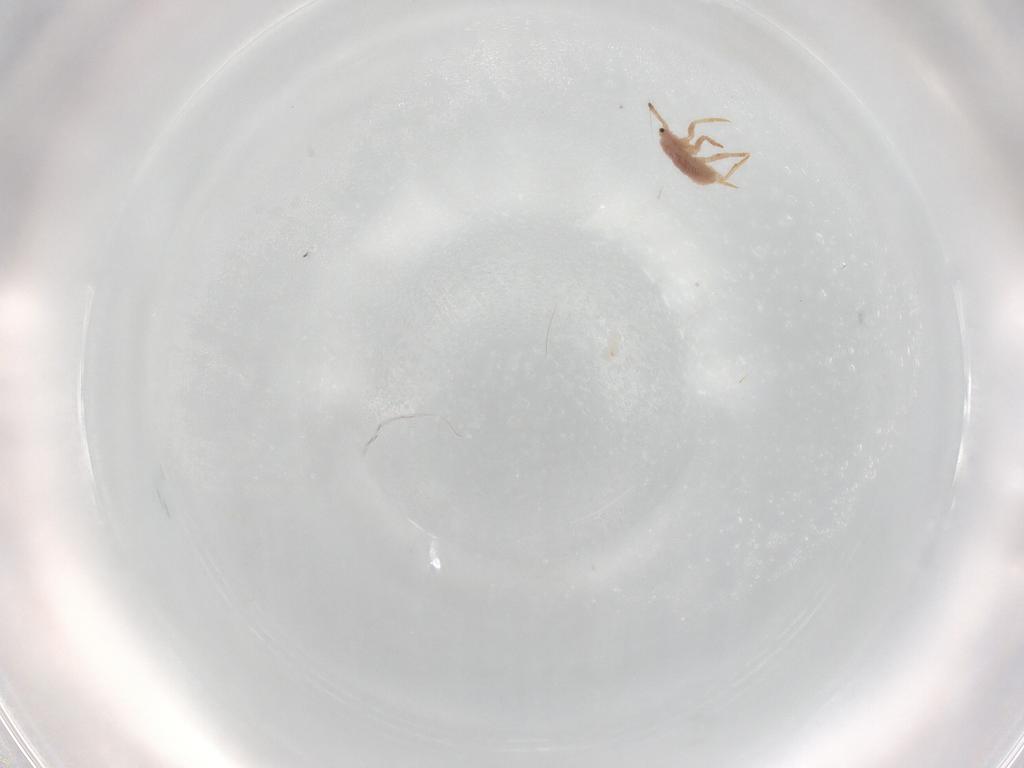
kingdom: Animalia
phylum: Arthropoda
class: Insecta
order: Hemiptera
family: Coccoidea_incertae_sedis
